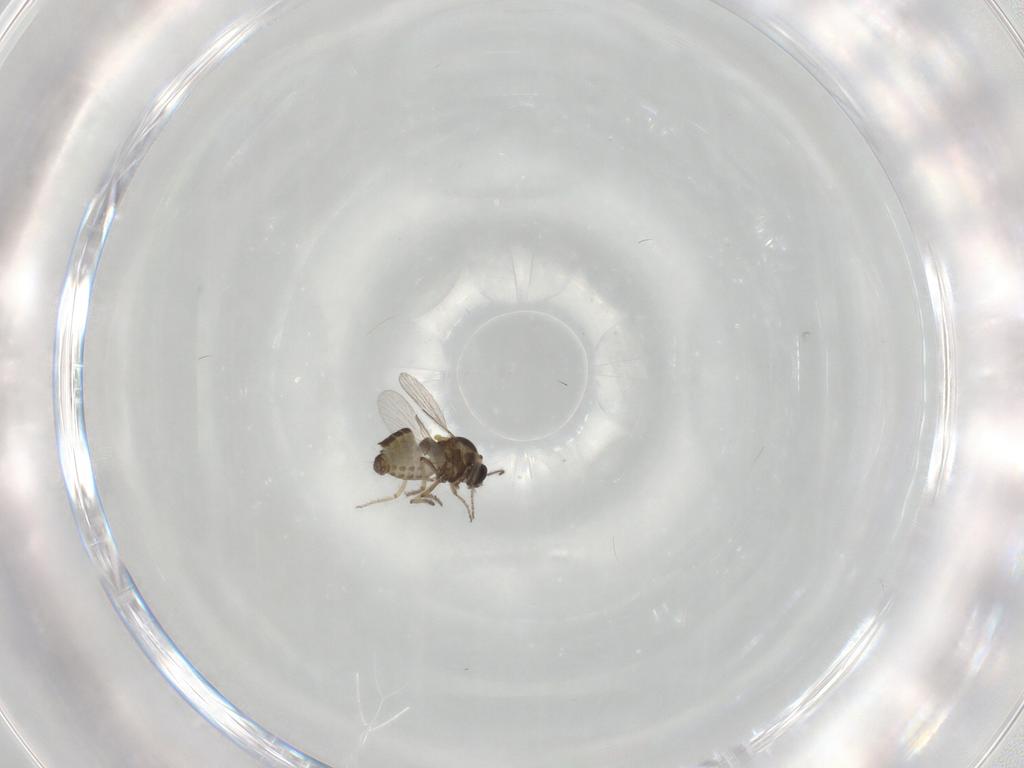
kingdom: Animalia
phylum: Arthropoda
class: Insecta
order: Diptera
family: Ceratopogonidae
